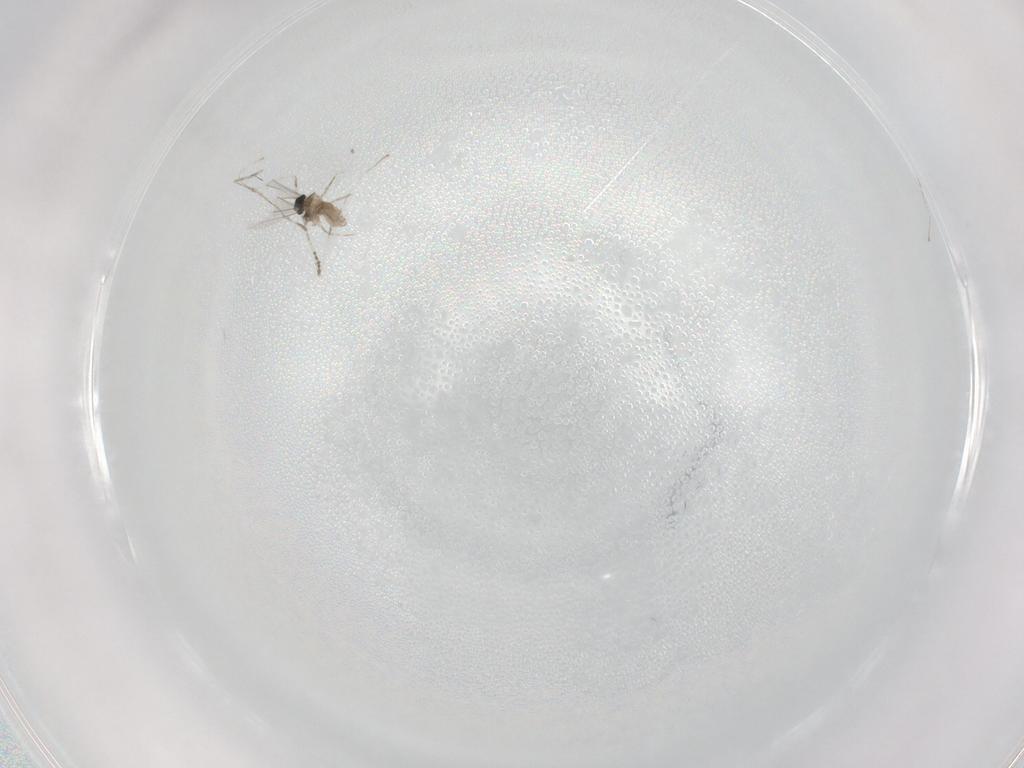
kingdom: Animalia
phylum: Arthropoda
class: Insecta
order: Diptera
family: Cecidomyiidae
